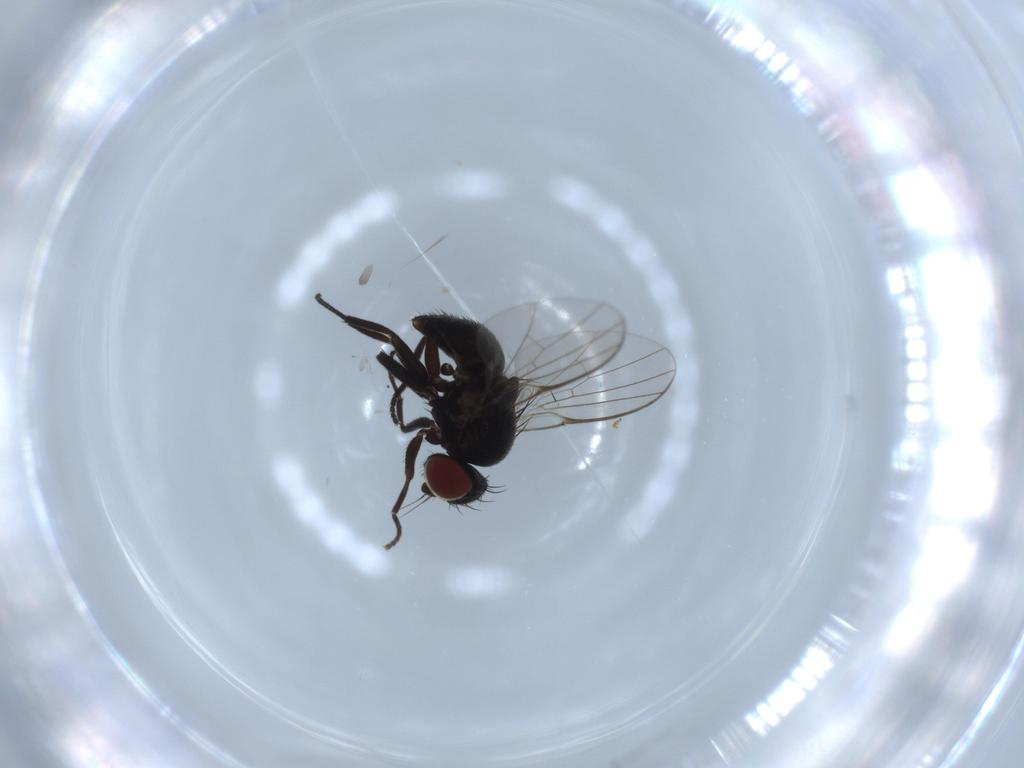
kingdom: Animalia
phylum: Arthropoda
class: Insecta
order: Diptera
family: Agromyzidae
